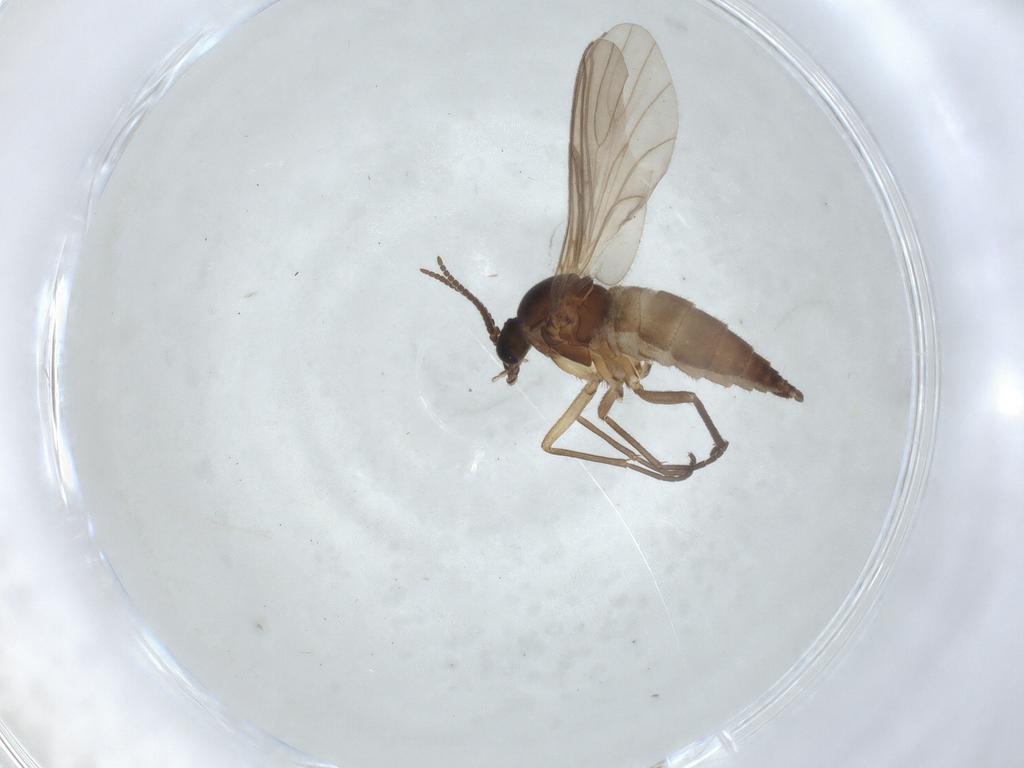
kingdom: Animalia
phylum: Arthropoda
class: Insecta
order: Diptera
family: Sciaridae
